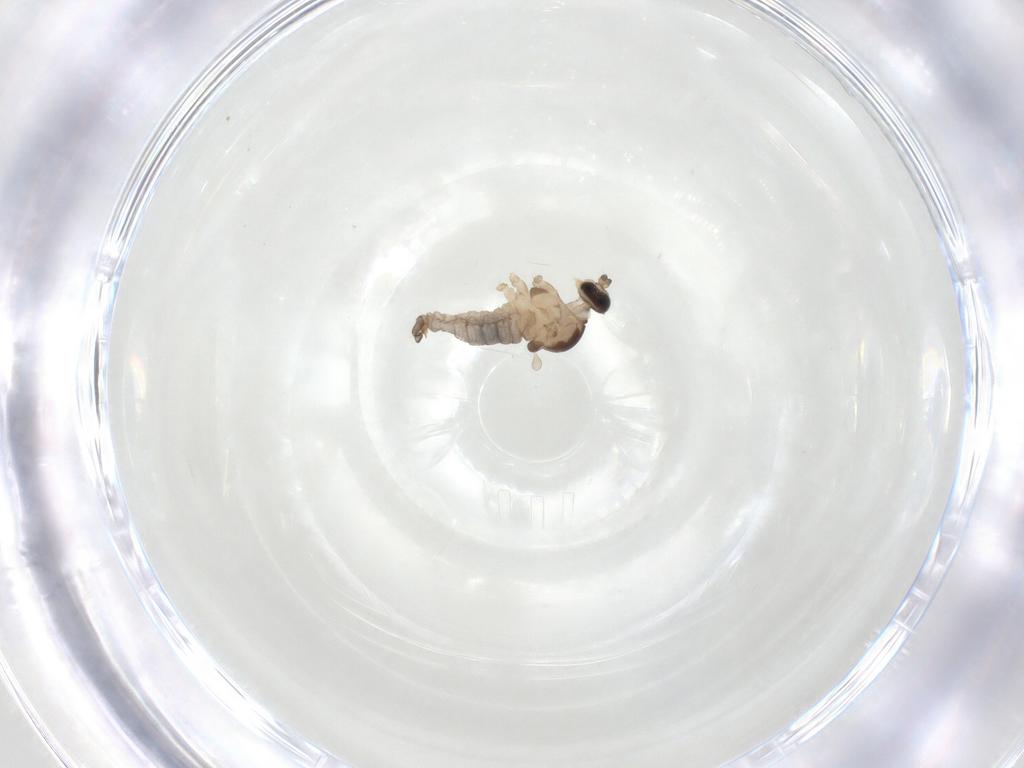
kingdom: Animalia
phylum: Arthropoda
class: Insecta
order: Diptera
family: Cecidomyiidae
